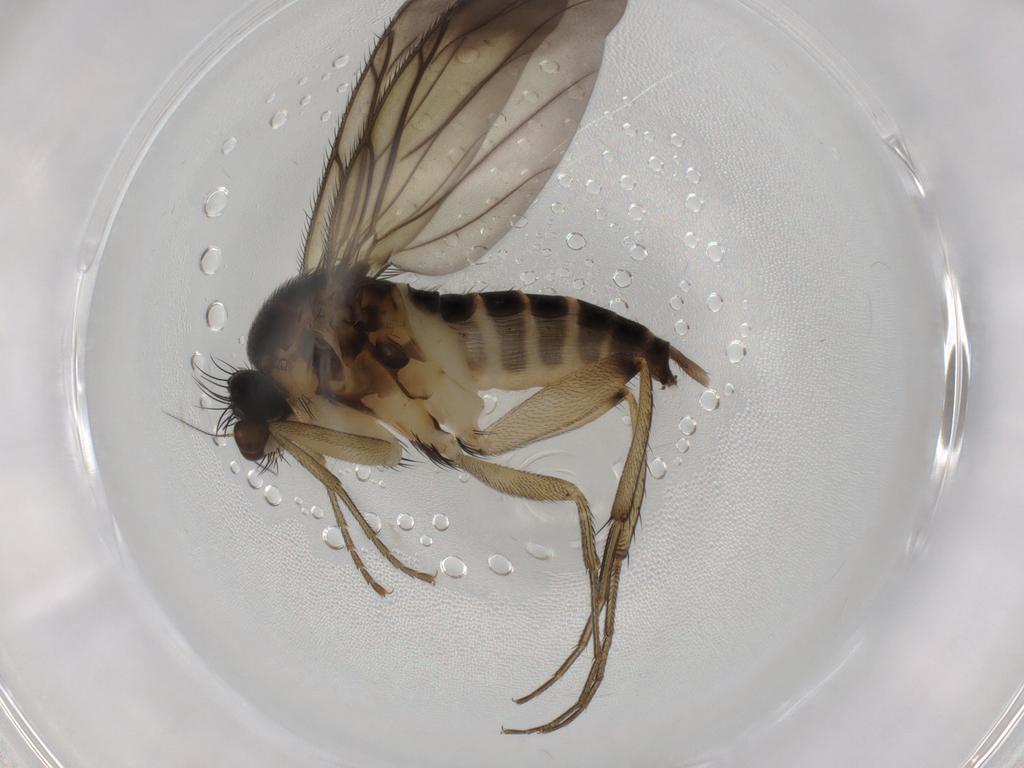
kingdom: Animalia
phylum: Arthropoda
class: Insecta
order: Diptera
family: Phoridae
